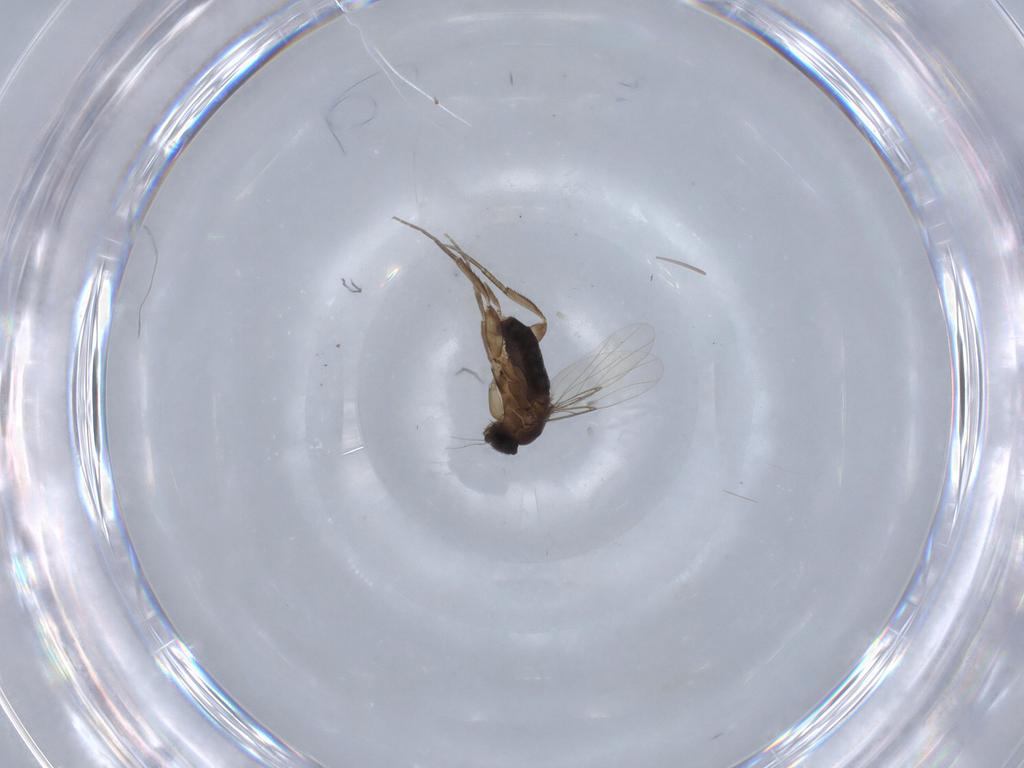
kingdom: Animalia
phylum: Arthropoda
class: Insecta
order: Diptera
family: Phoridae
